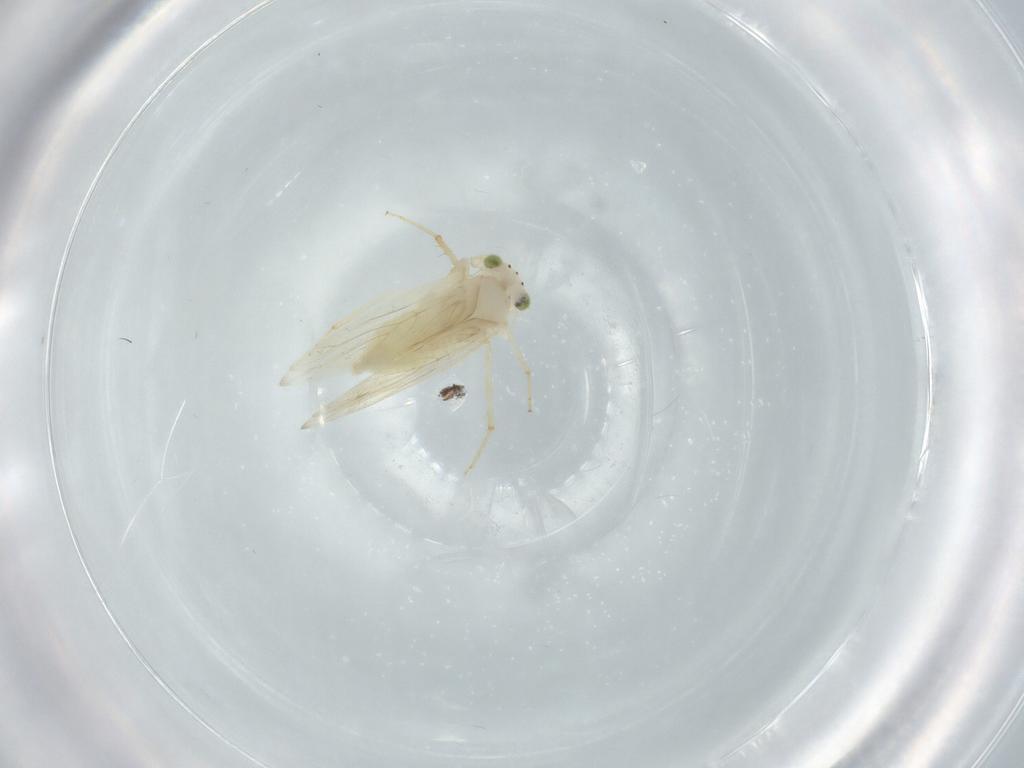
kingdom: Animalia
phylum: Arthropoda
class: Insecta
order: Psocodea
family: Lepidopsocidae
